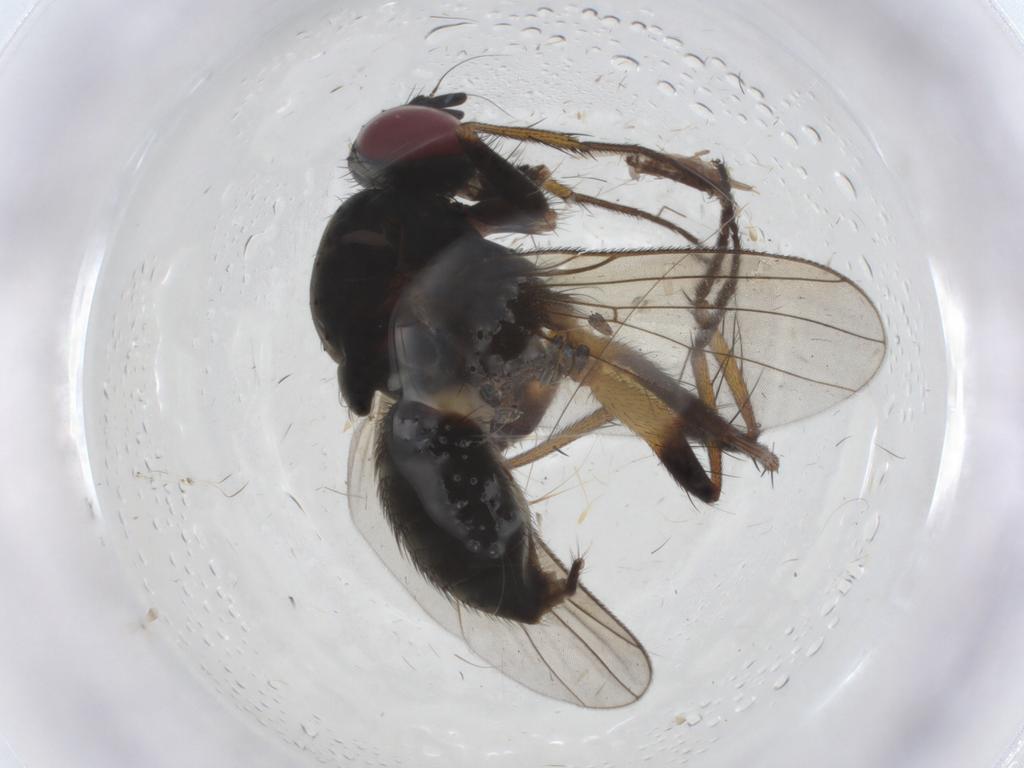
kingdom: Animalia
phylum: Arthropoda
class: Insecta
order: Diptera
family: Muscidae
